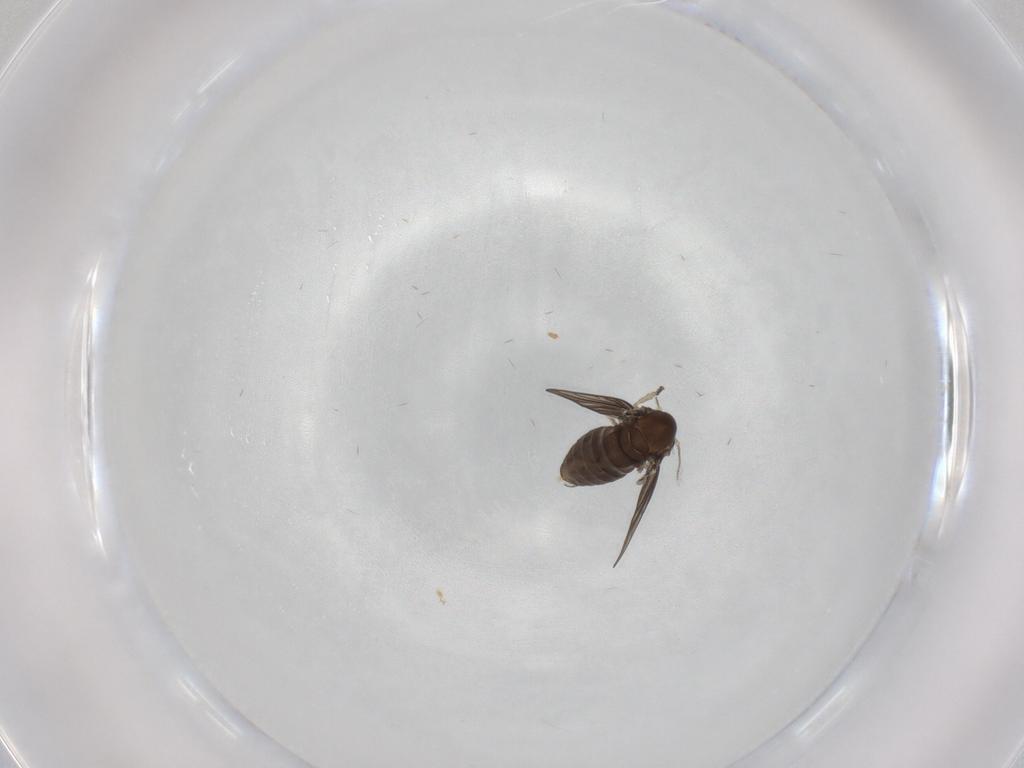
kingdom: Animalia
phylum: Arthropoda
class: Insecta
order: Diptera
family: Psychodidae
